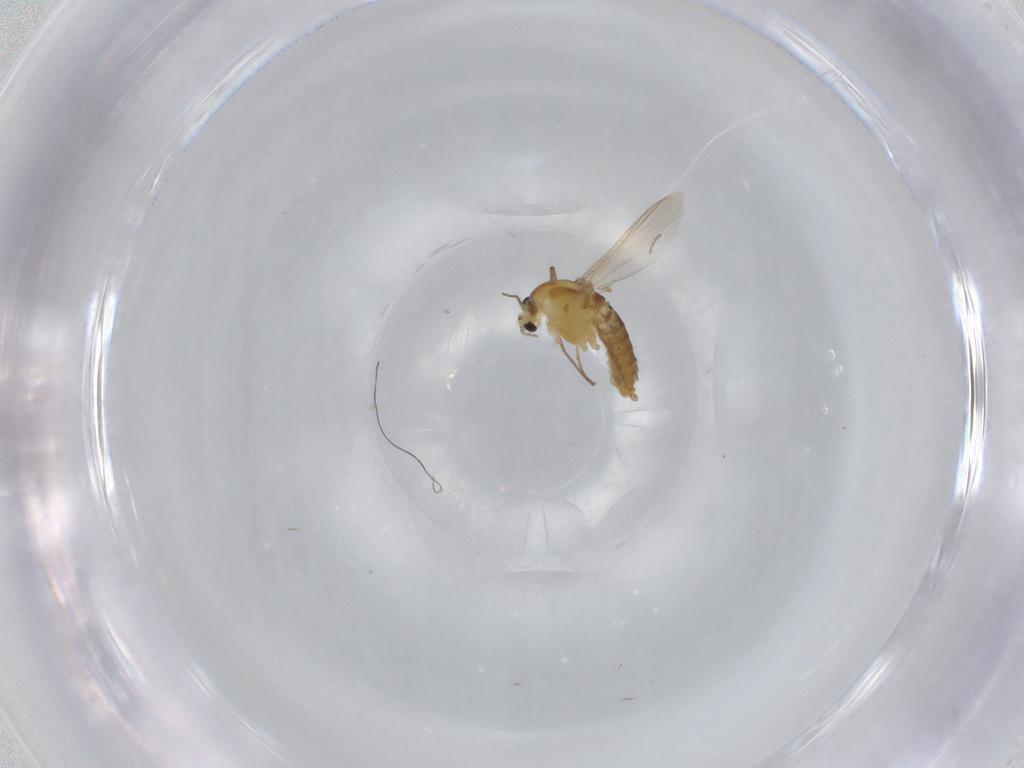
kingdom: Animalia
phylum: Arthropoda
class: Insecta
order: Diptera
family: Chironomidae
